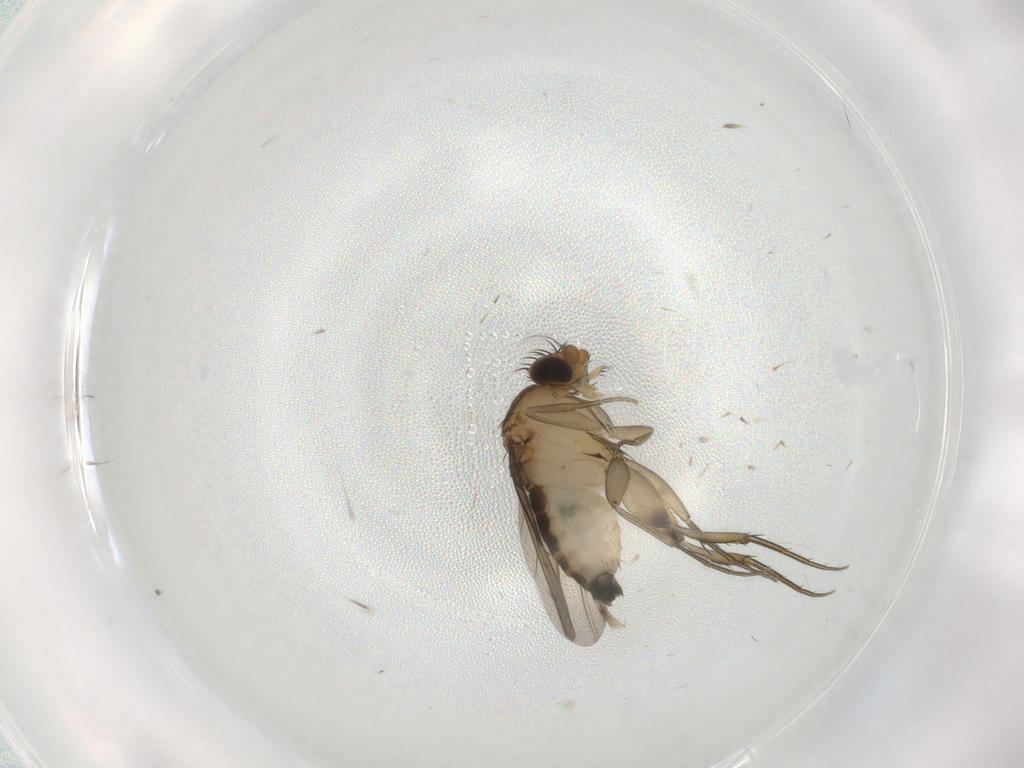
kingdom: Animalia
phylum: Arthropoda
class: Insecta
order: Diptera
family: Phoridae
